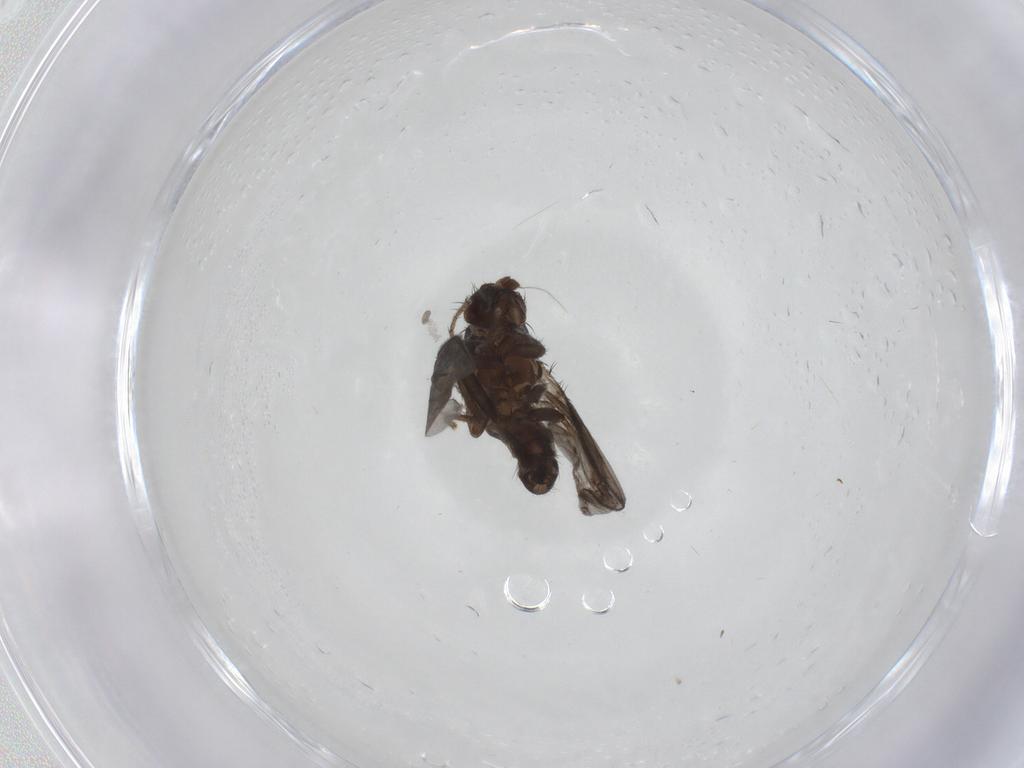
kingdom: Animalia
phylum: Arthropoda
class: Insecta
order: Diptera
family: Sphaeroceridae
